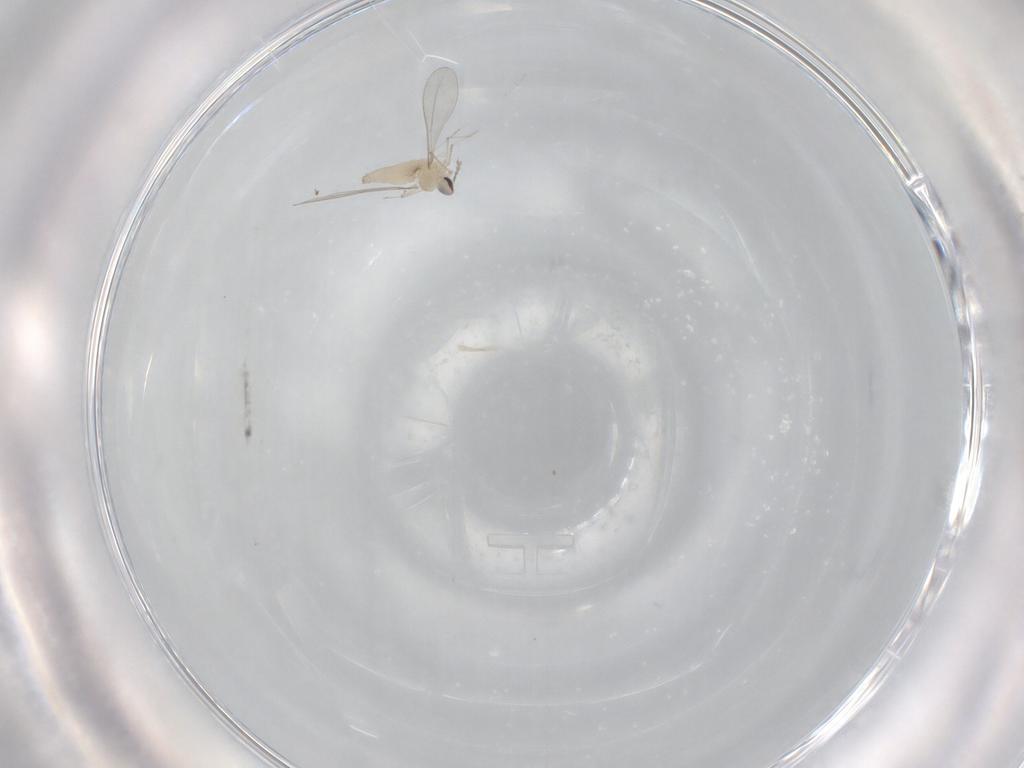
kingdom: Animalia
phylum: Arthropoda
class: Insecta
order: Diptera
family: Cecidomyiidae
